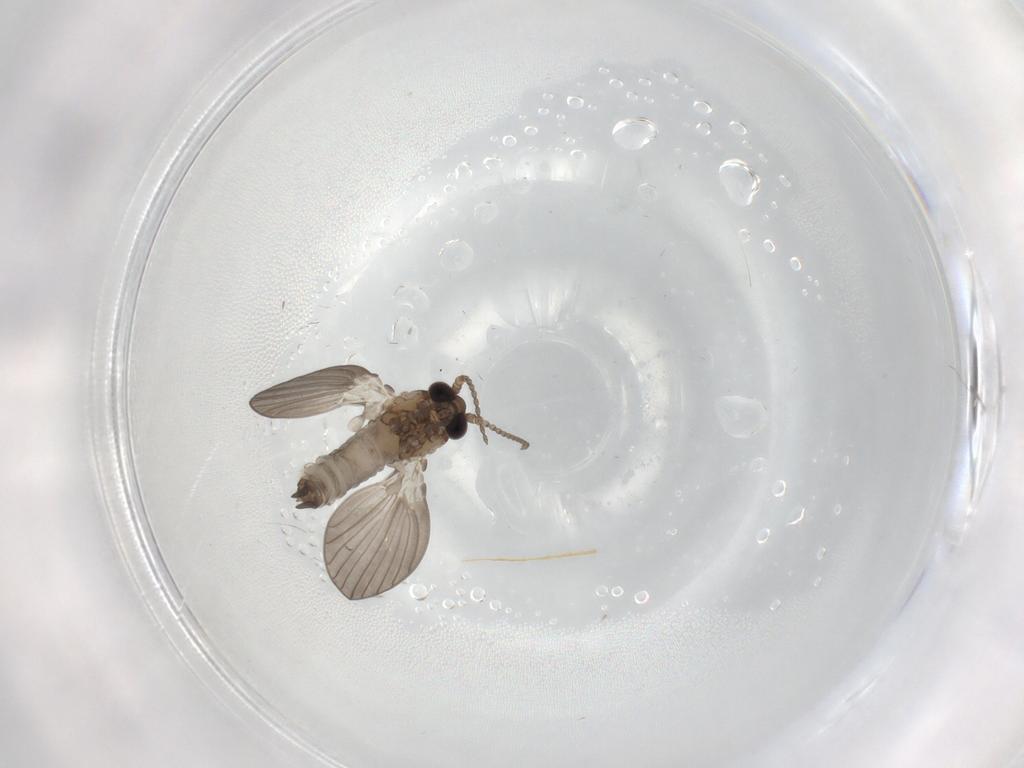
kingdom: Animalia
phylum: Arthropoda
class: Insecta
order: Diptera
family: Psychodidae
